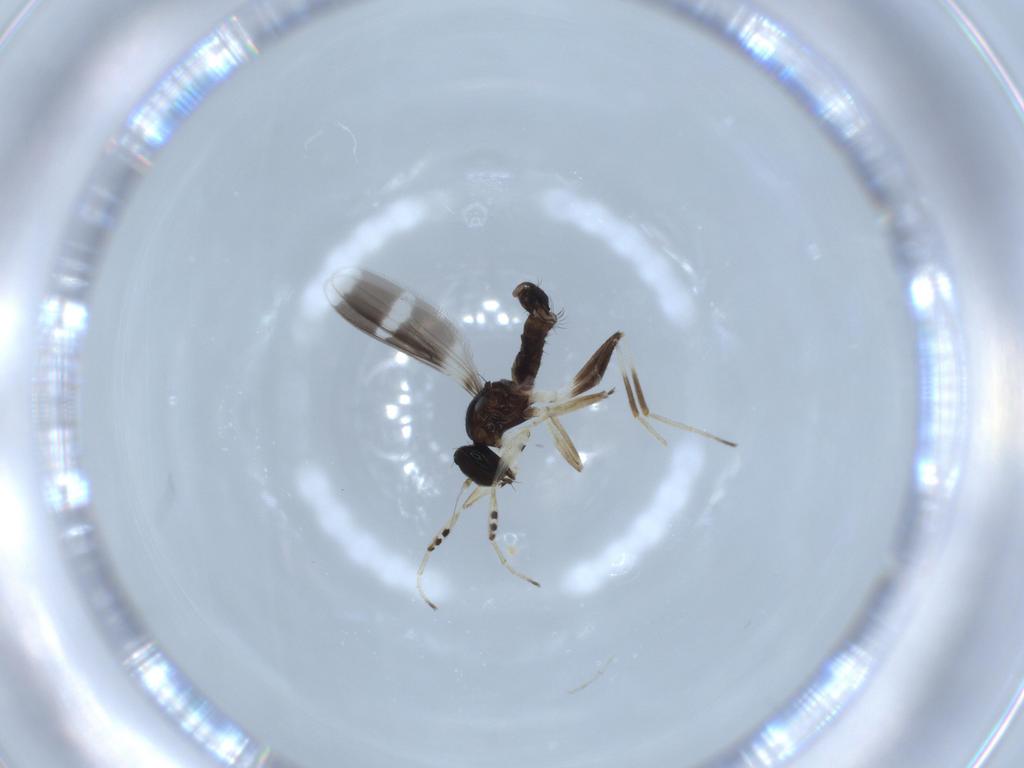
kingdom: Animalia
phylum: Arthropoda
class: Insecta
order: Diptera
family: Hybotidae
